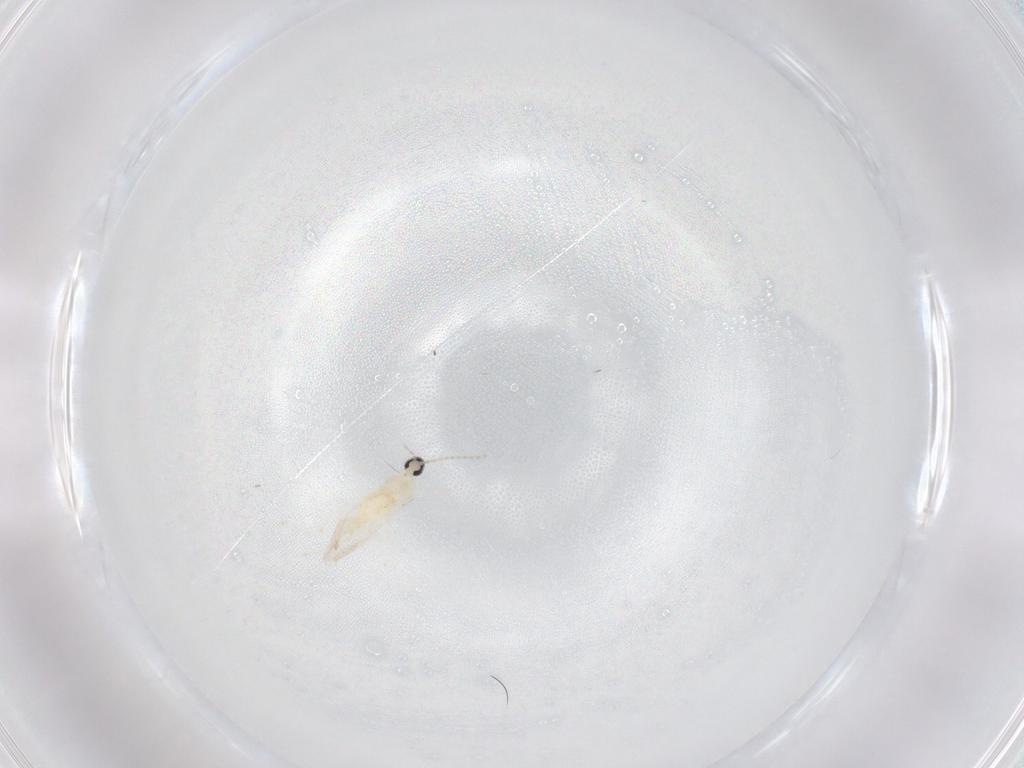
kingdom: Animalia
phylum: Arthropoda
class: Insecta
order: Diptera
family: Cecidomyiidae
